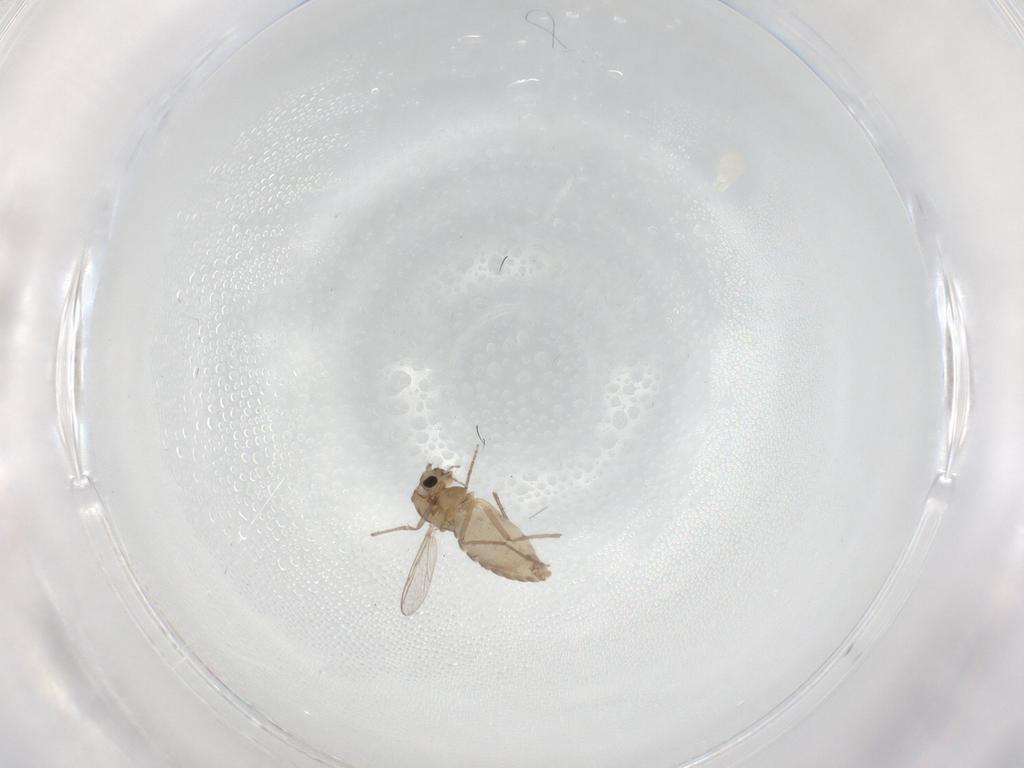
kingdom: Animalia
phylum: Arthropoda
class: Insecta
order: Diptera
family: Chironomidae
